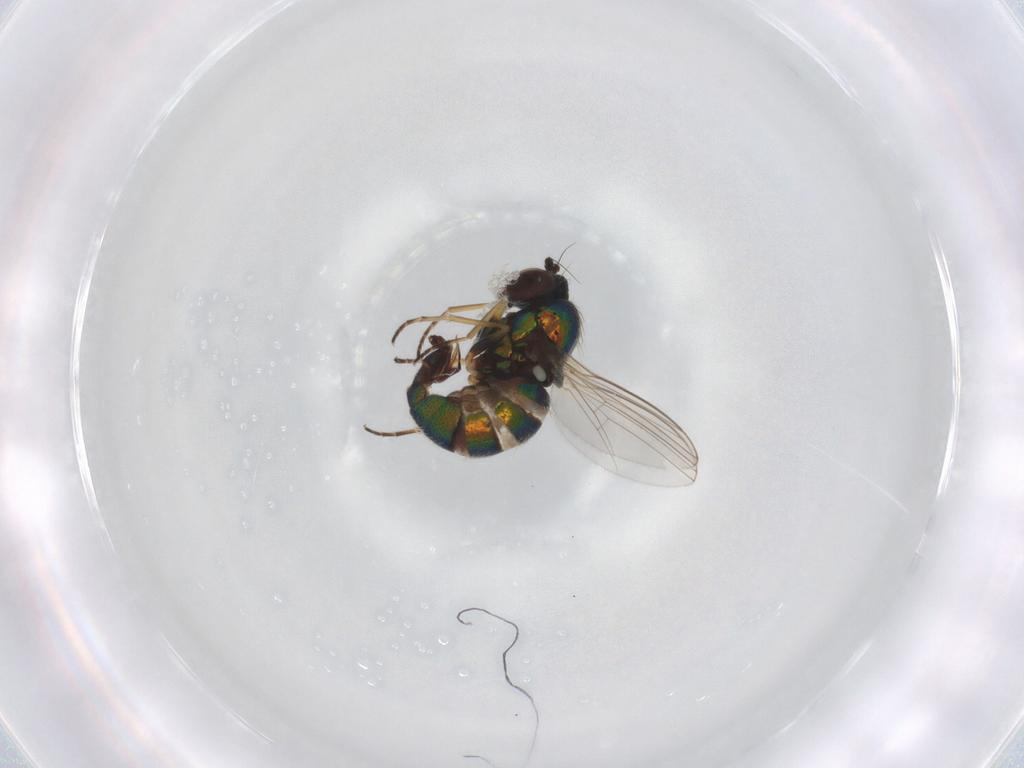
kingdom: Animalia
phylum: Arthropoda
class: Insecta
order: Diptera
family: Dolichopodidae
